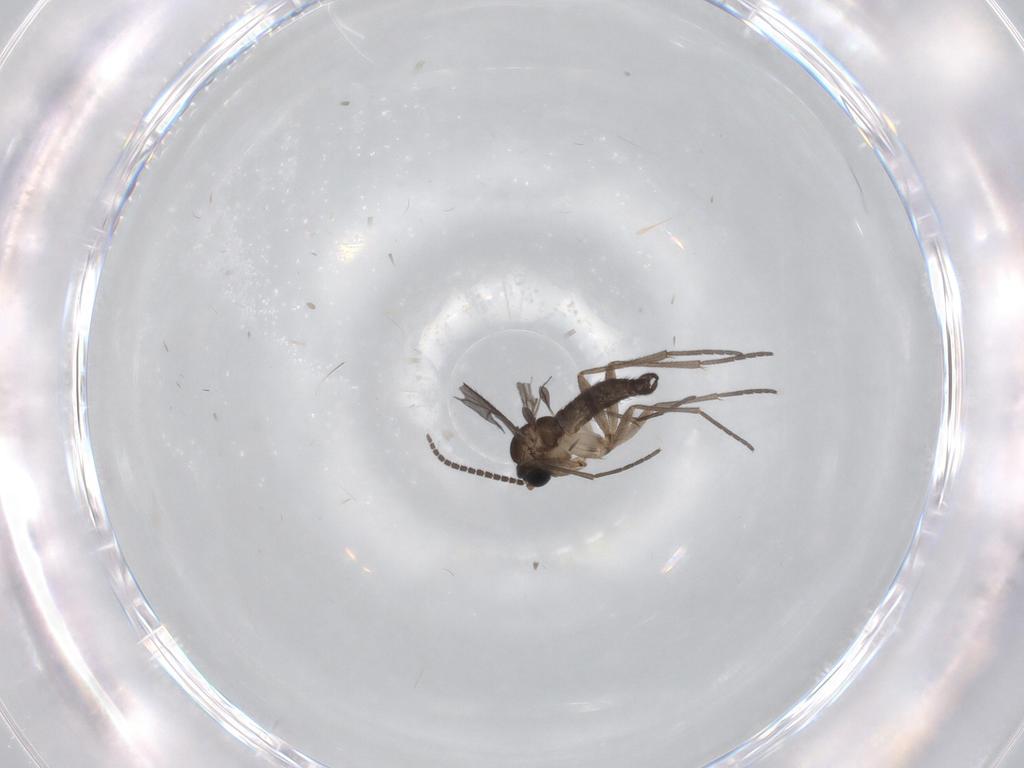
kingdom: Animalia
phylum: Arthropoda
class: Insecta
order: Diptera
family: Sciaridae
